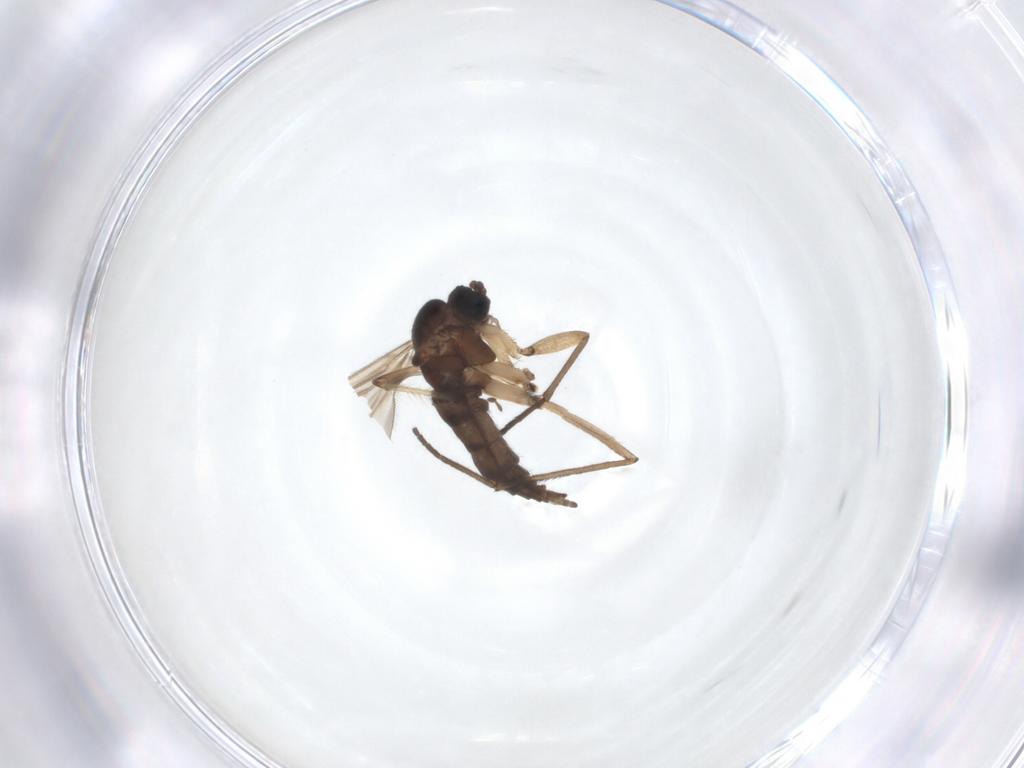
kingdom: Animalia
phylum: Arthropoda
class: Insecta
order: Diptera
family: Sciaridae
